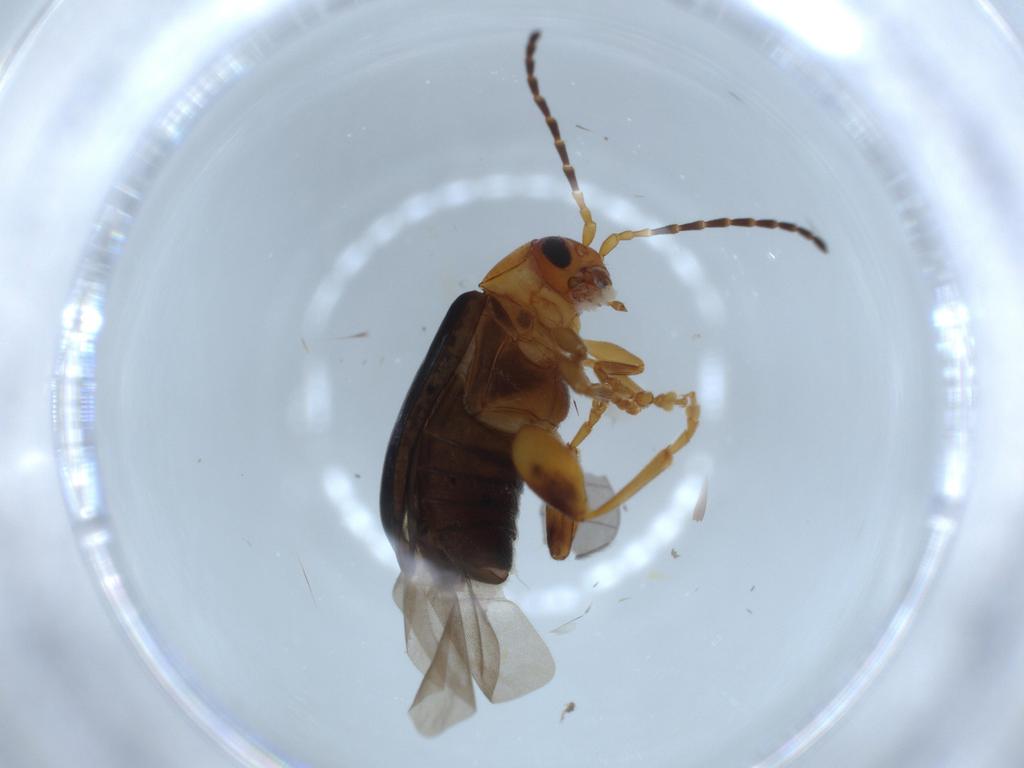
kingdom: Animalia
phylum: Arthropoda
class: Insecta
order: Coleoptera
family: Chrysomelidae
